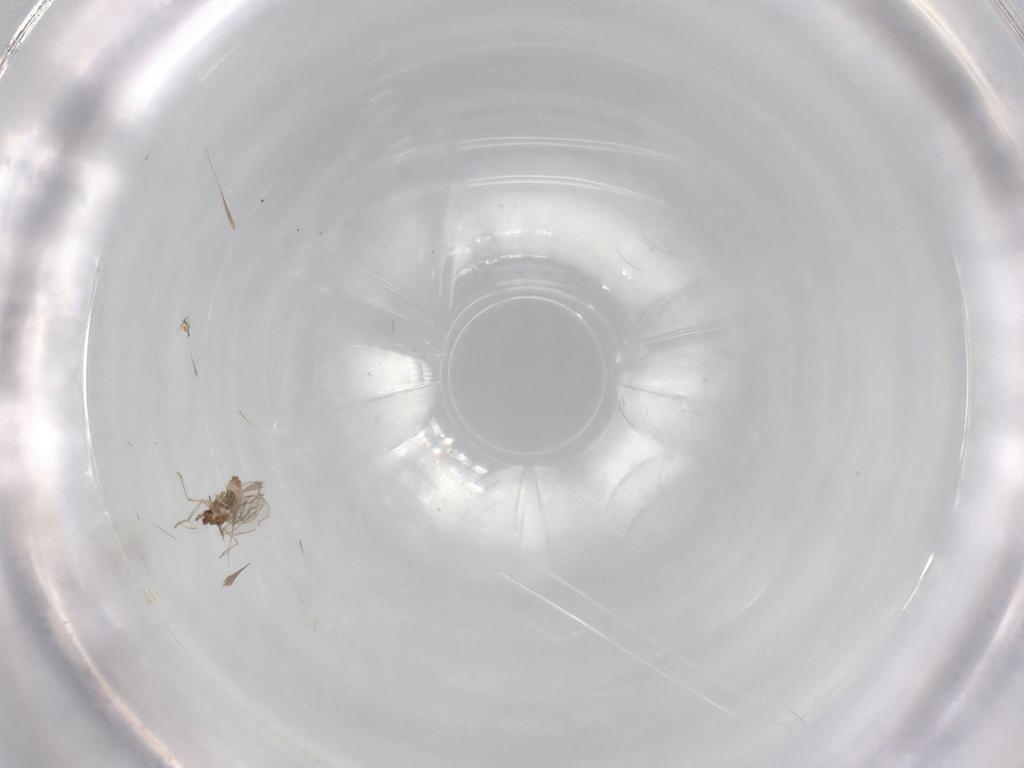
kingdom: Animalia
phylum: Arthropoda
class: Insecta
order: Diptera
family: Cecidomyiidae
